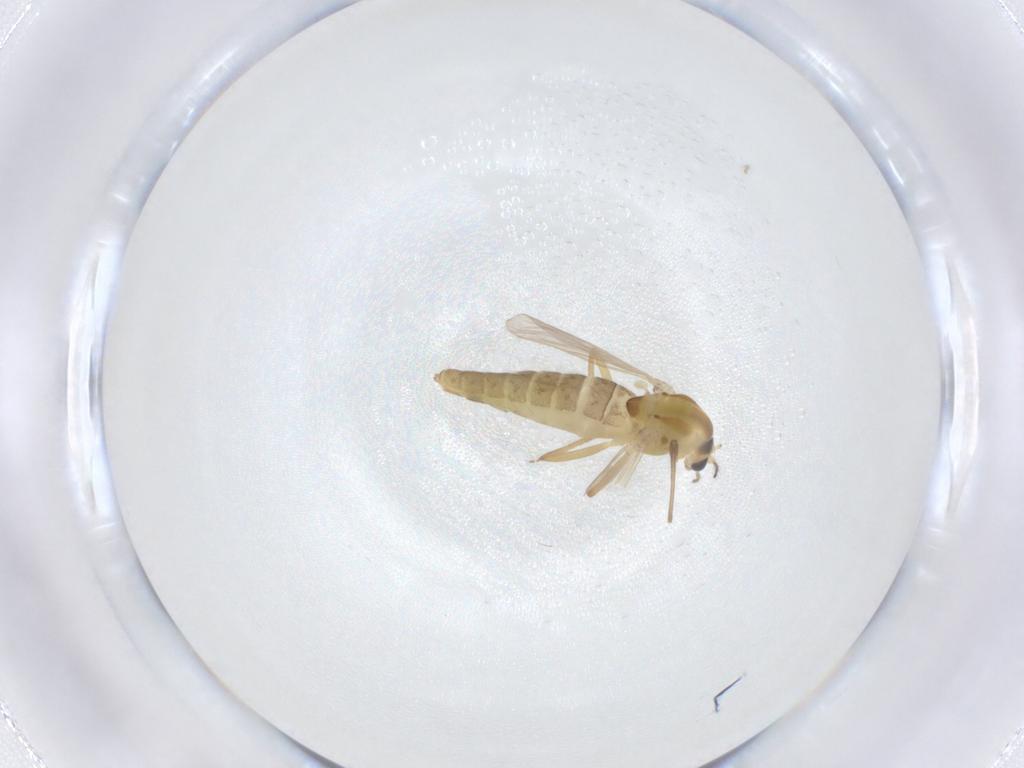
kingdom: Animalia
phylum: Arthropoda
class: Insecta
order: Diptera
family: Chironomidae
